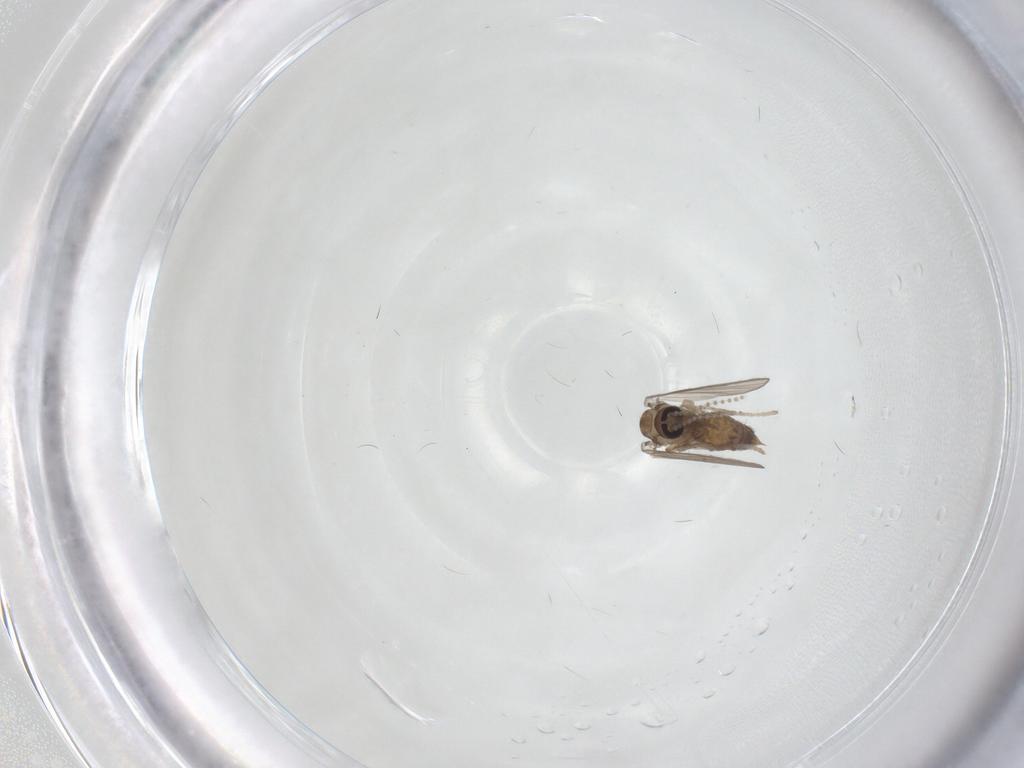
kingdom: Animalia
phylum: Arthropoda
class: Insecta
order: Diptera
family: Psychodidae
